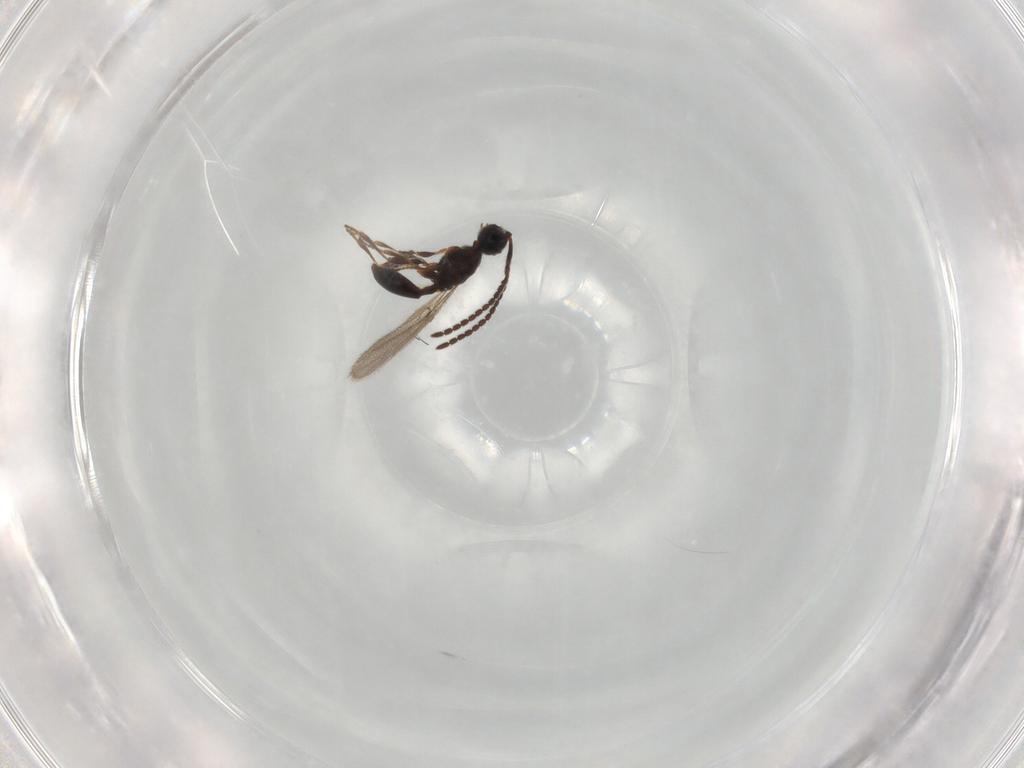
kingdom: Animalia
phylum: Arthropoda
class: Insecta
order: Hymenoptera
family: Diapriidae
